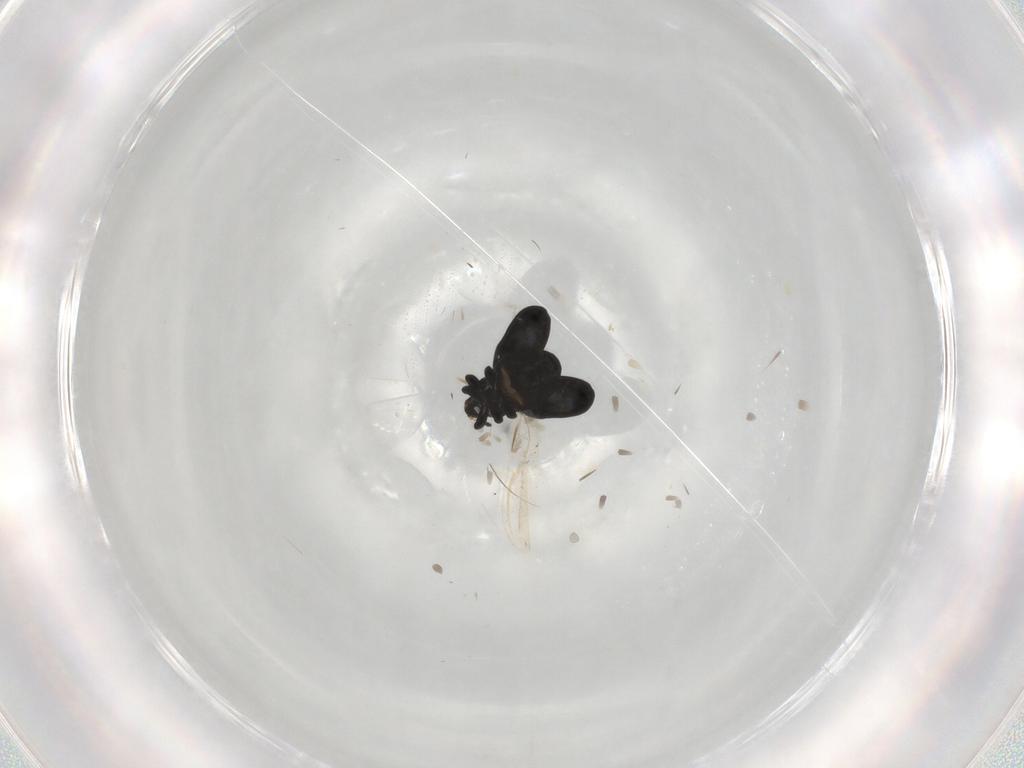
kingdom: Animalia
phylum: Arthropoda
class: Insecta
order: Coleoptera
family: Curculionidae
